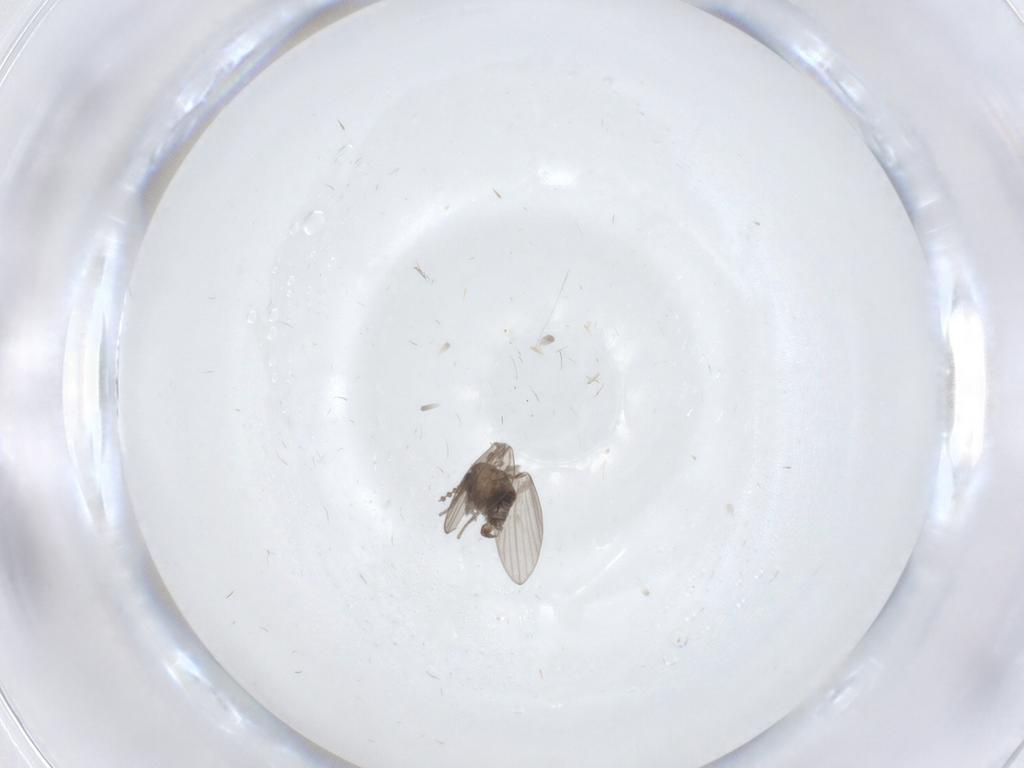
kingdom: Animalia
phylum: Arthropoda
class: Insecta
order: Diptera
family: Psychodidae
